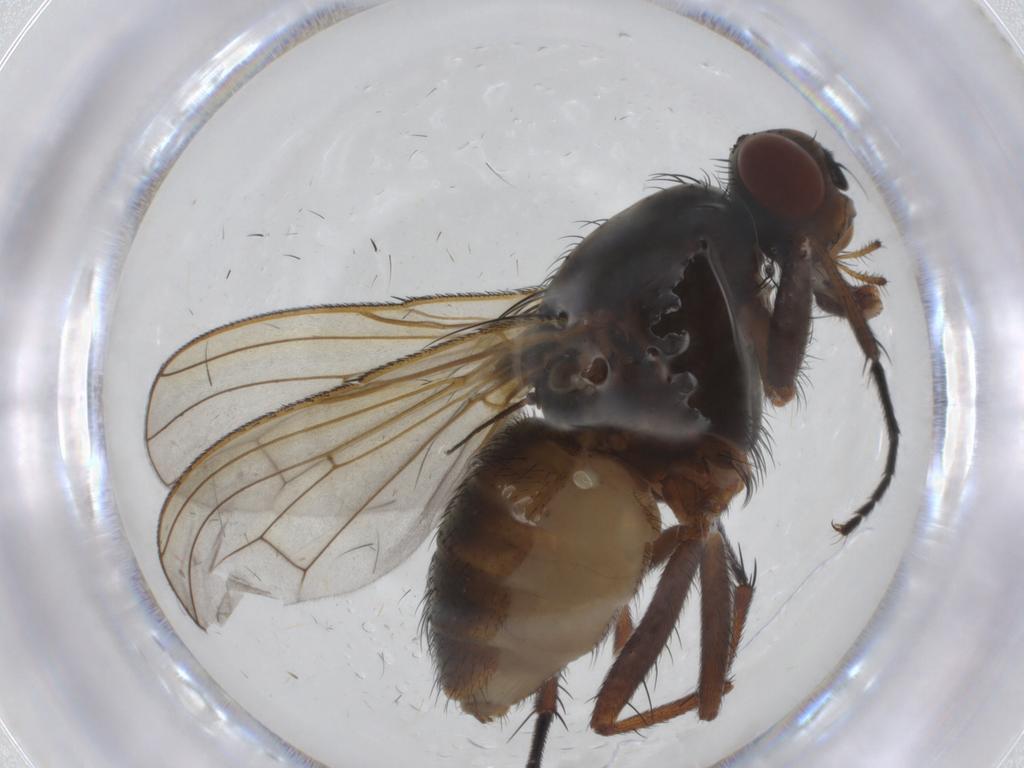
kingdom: Animalia
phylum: Arthropoda
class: Insecta
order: Diptera
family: Anthomyiidae
